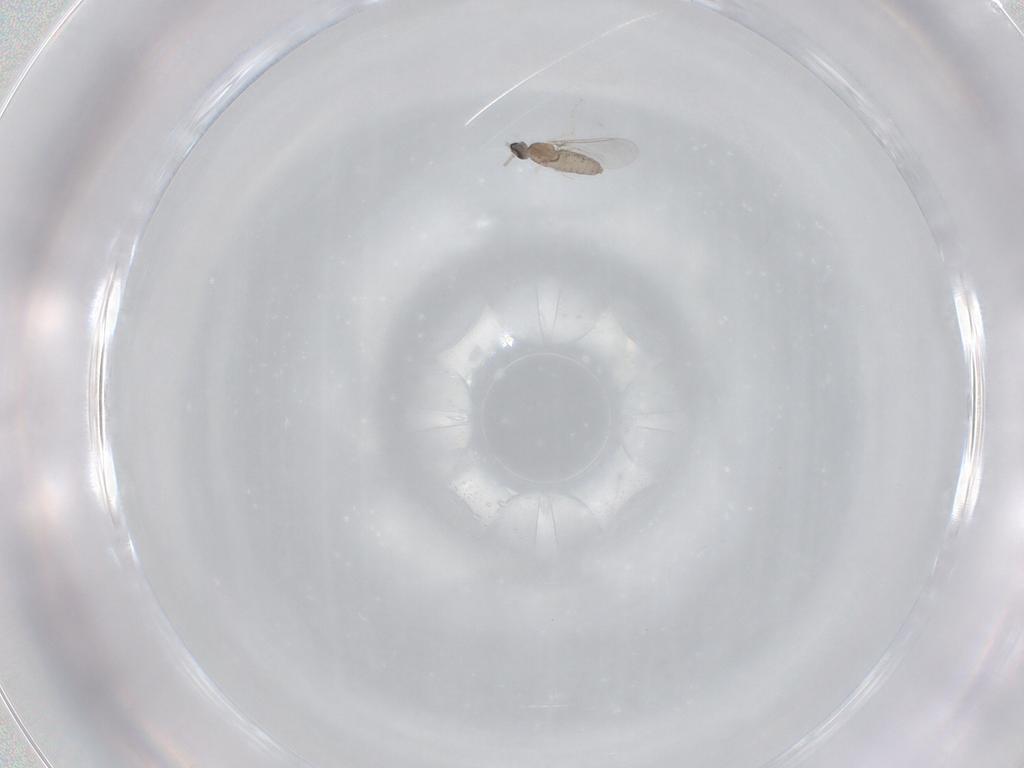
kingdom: Animalia
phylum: Arthropoda
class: Insecta
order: Diptera
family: Cecidomyiidae
